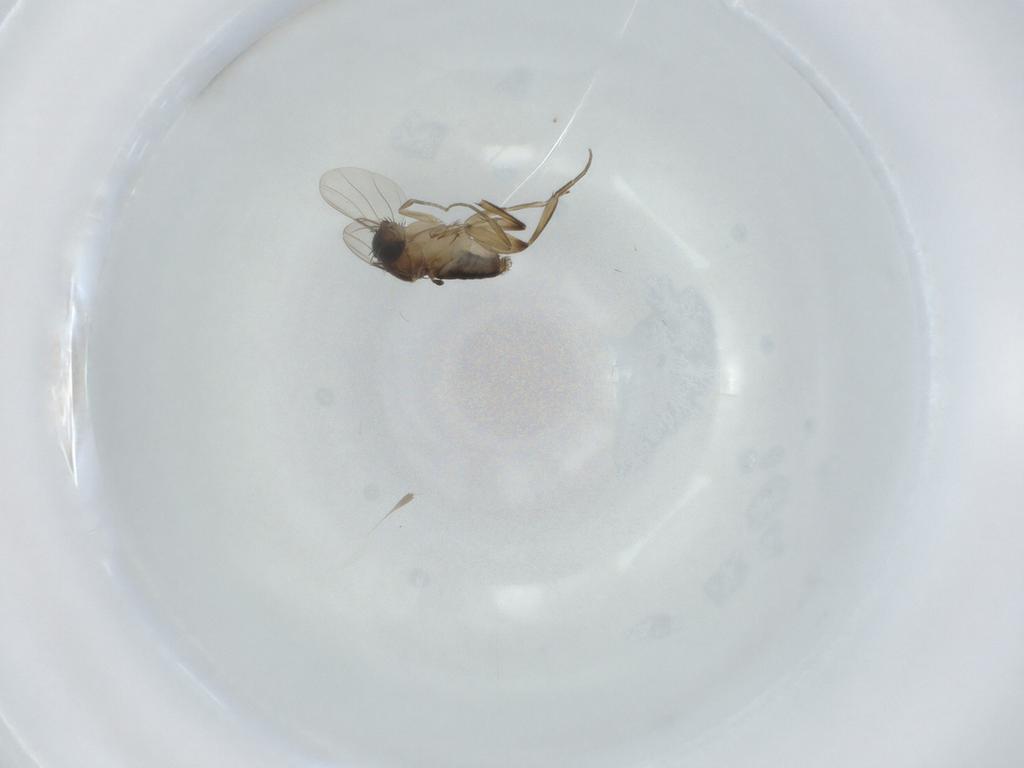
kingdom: Animalia
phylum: Arthropoda
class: Insecta
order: Diptera
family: Phoridae
